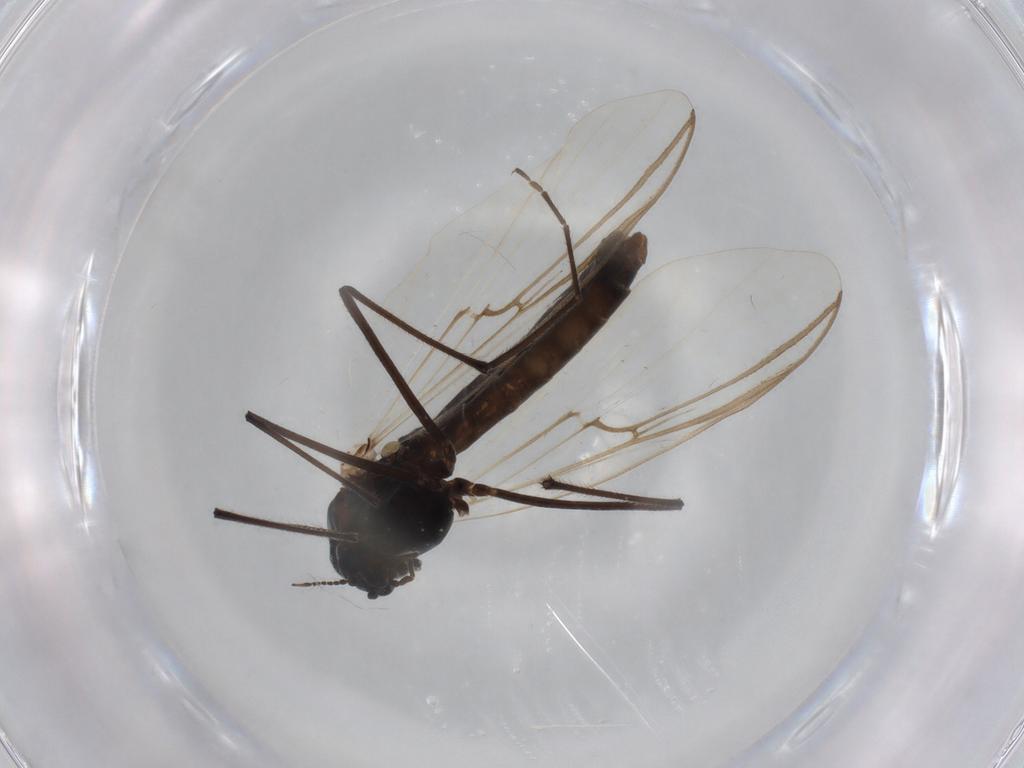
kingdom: Animalia
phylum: Arthropoda
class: Insecta
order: Diptera
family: Chironomidae
